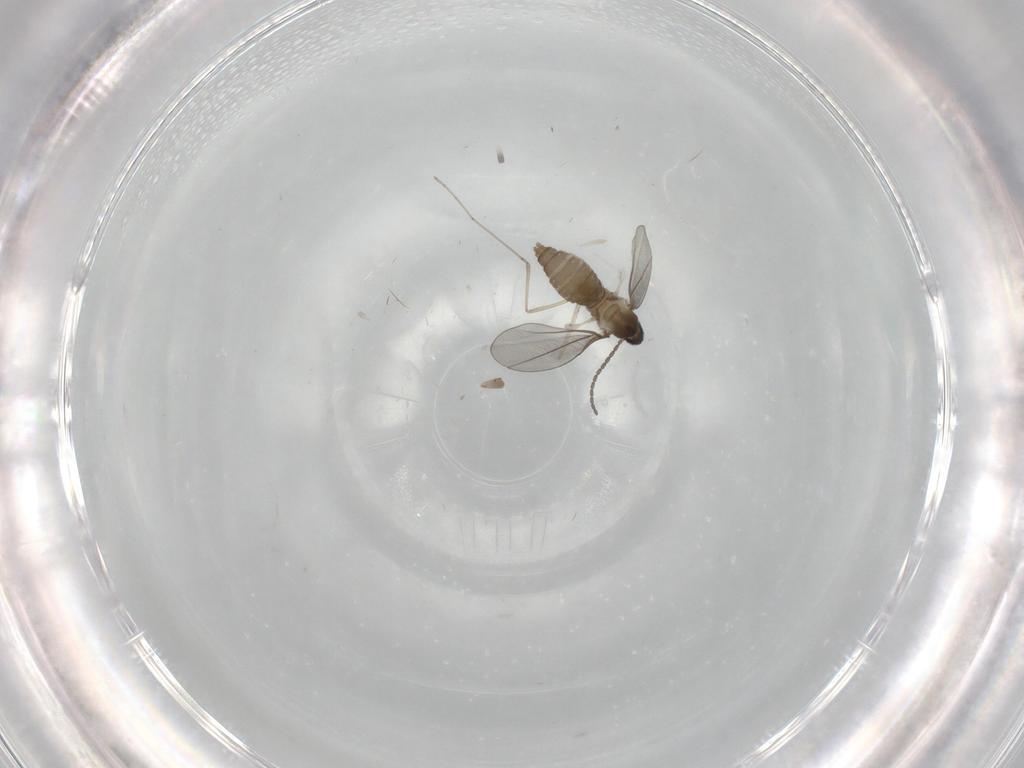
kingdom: Animalia
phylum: Arthropoda
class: Insecta
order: Diptera
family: Cecidomyiidae
